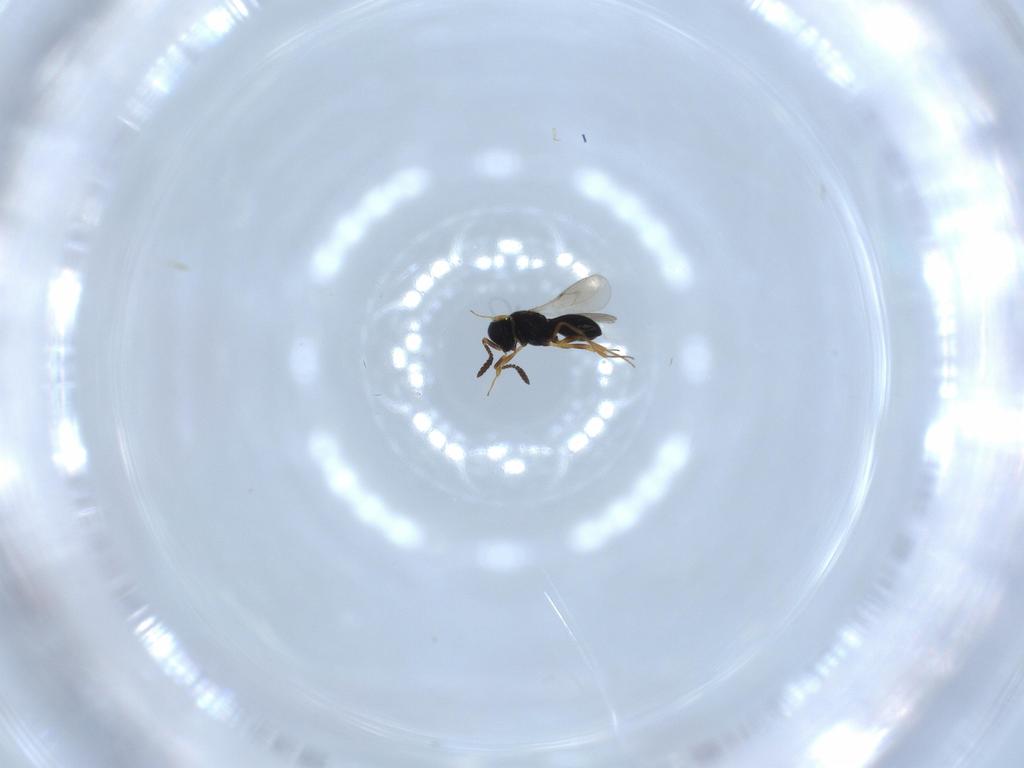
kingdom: Animalia
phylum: Arthropoda
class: Insecta
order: Hymenoptera
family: Scelionidae
